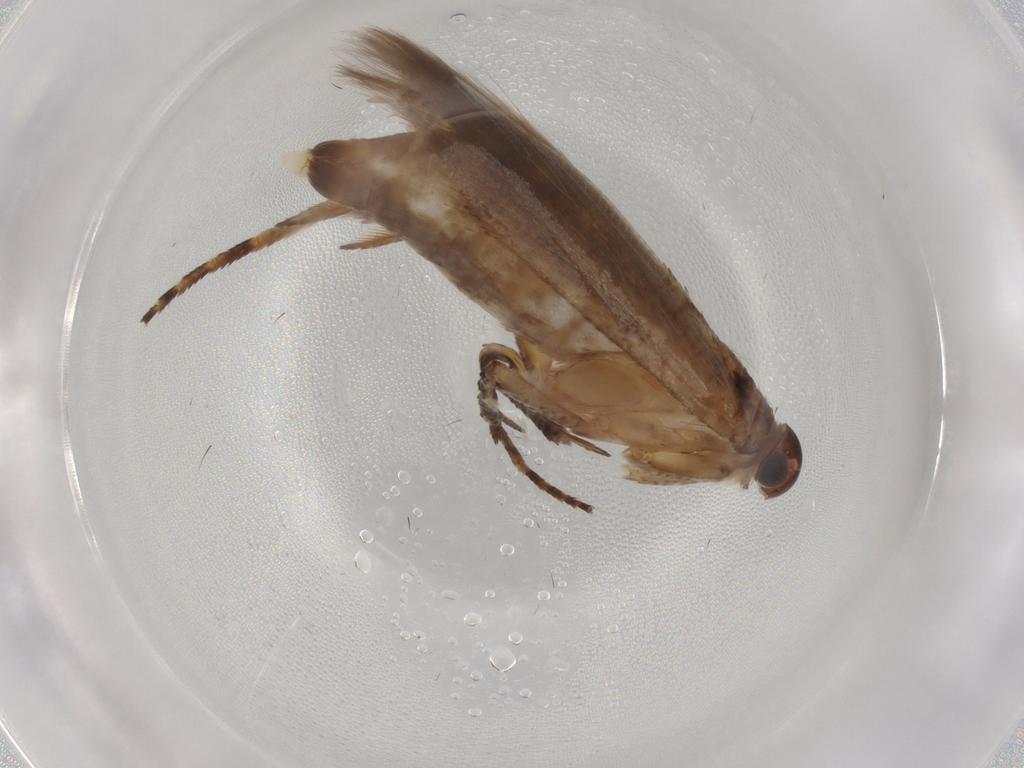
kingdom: Animalia
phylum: Arthropoda
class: Insecta
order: Lepidoptera
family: Gelechiidae
